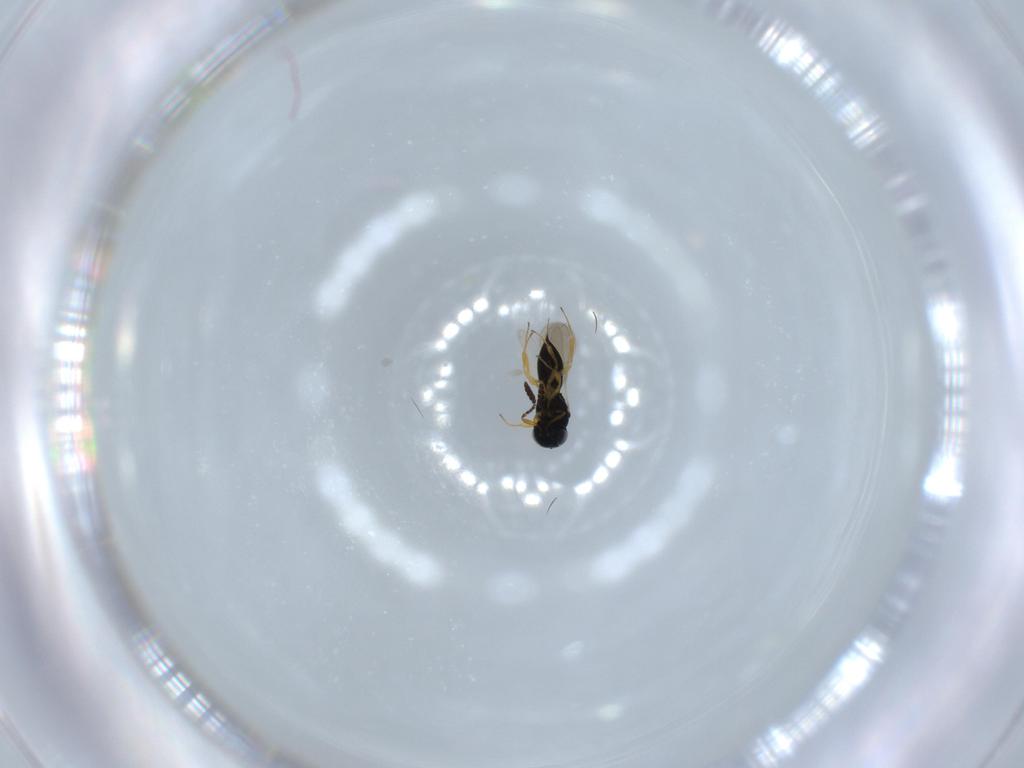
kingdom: Animalia
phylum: Arthropoda
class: Insecta
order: Hymenoptera
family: Scelionidae
